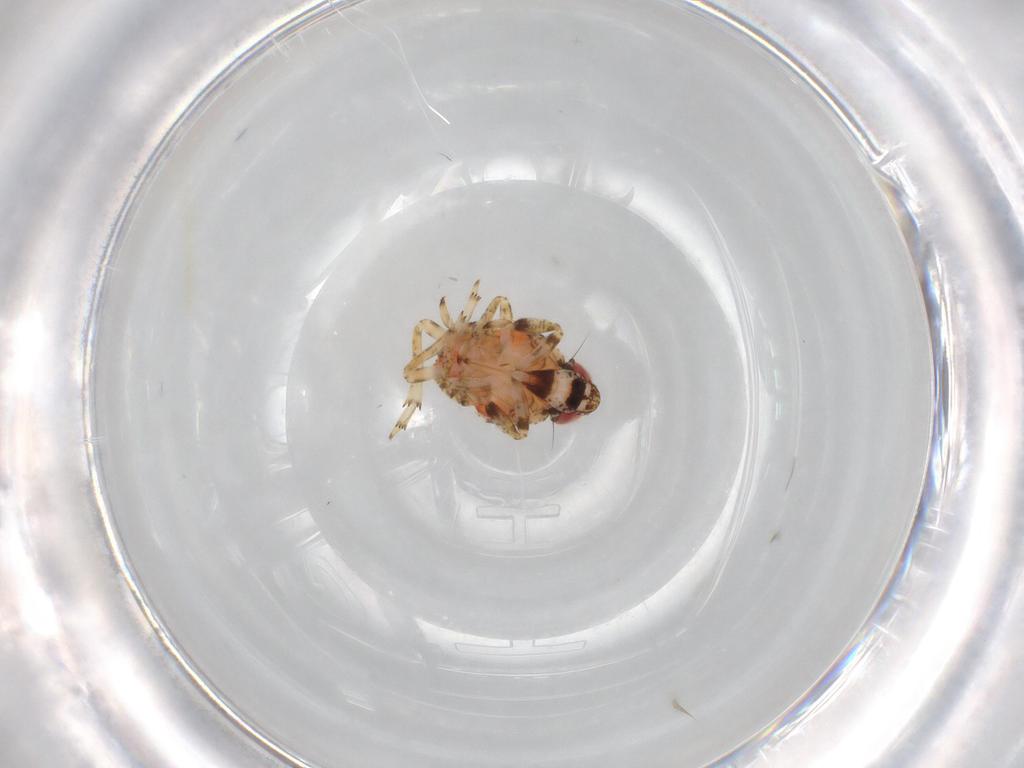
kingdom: Animalia
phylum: Arthropoda
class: Insecta
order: Hemiptera
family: Issidae
